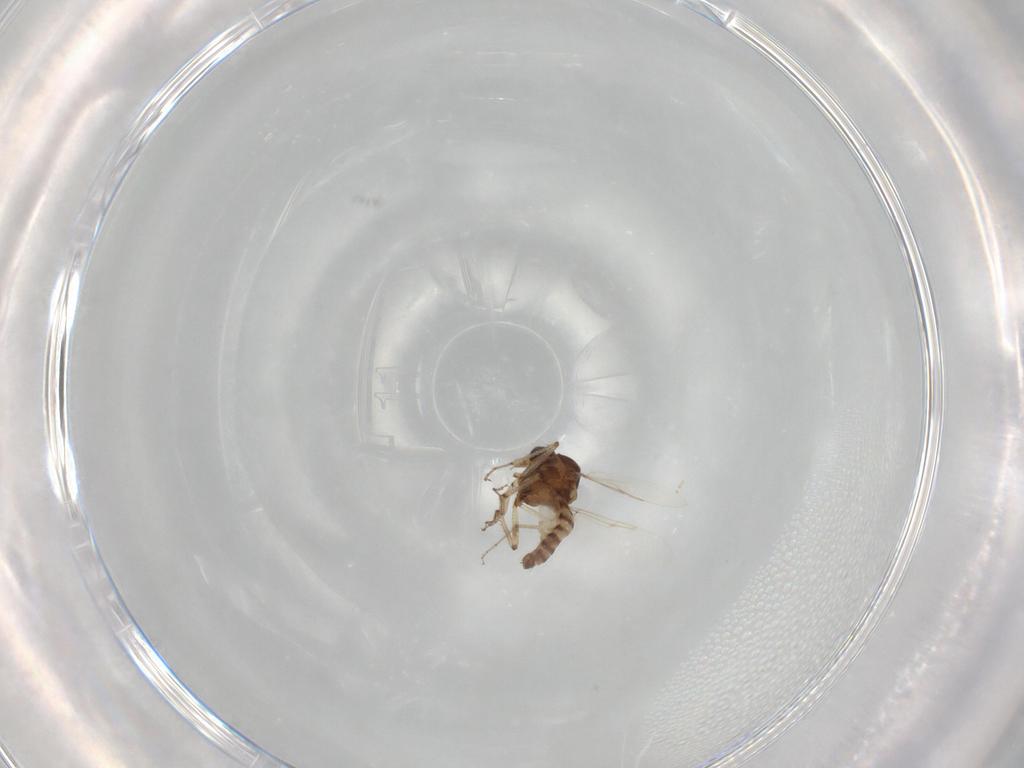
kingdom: Animalia
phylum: Arthropoda
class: Insecta
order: Diptera
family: Ceratopogonidae
